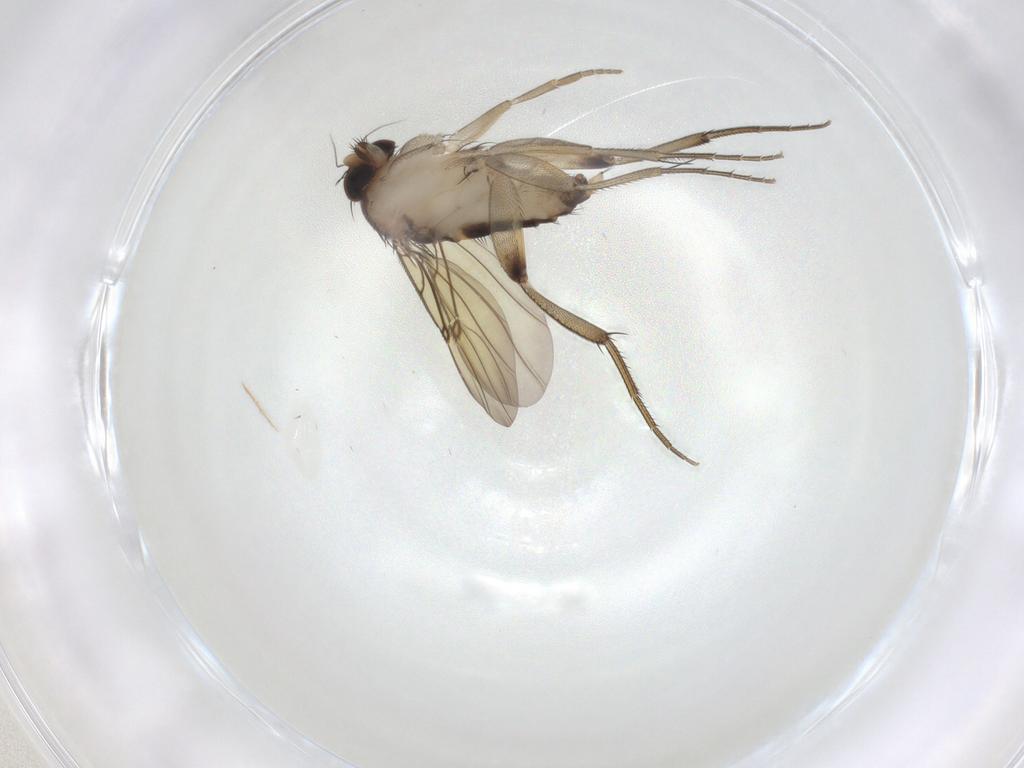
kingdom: Animalia
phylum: Arthropoda
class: Insecta
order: Diptera
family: Phoridae
